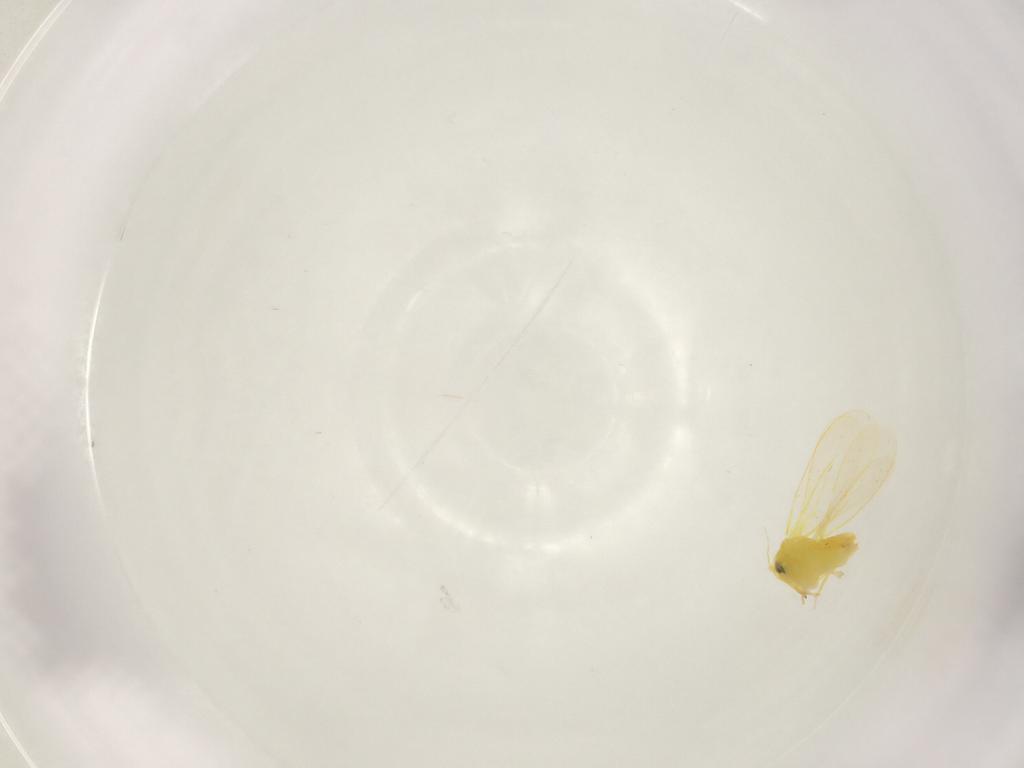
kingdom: Animalia
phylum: Arthropoda
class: Insecta
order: Hemiptera
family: Aleyrodidae
